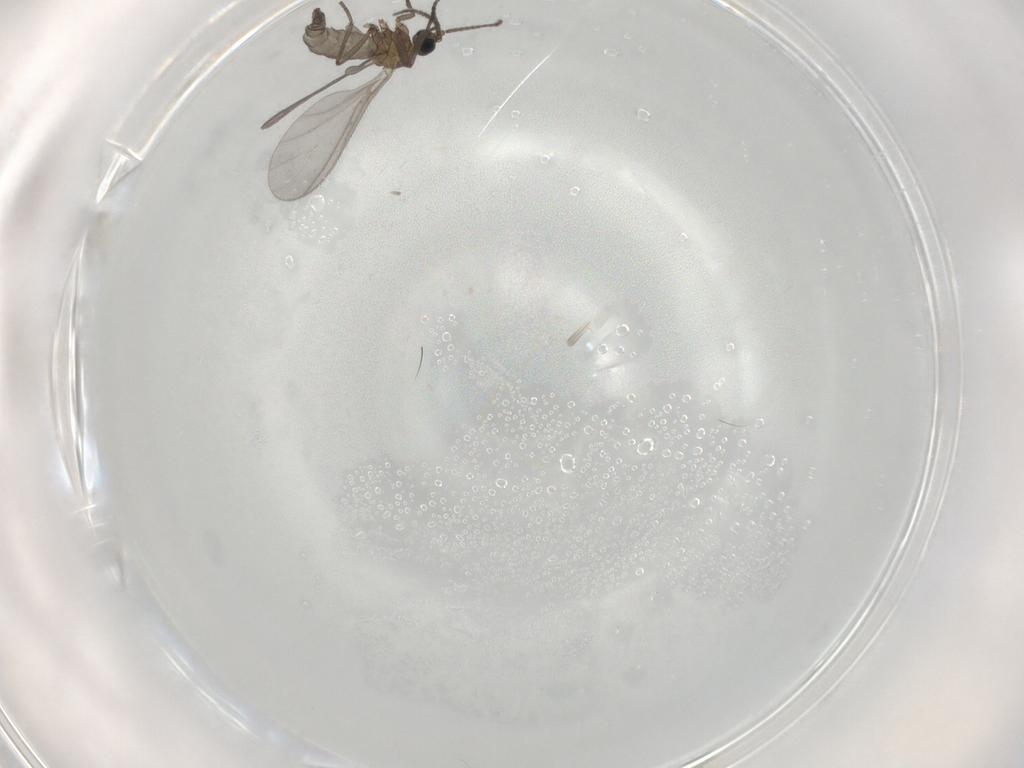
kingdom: Animalia
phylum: Arthropoda
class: Insecta
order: Diptera
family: Sciaridae
